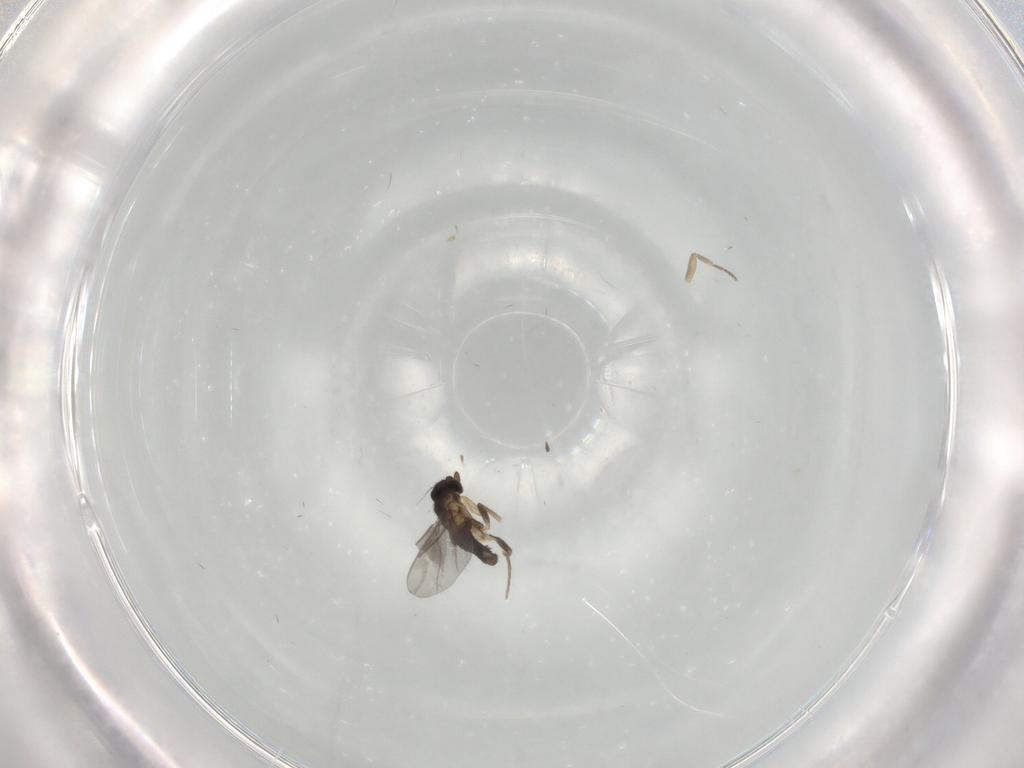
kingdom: Animalia
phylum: Arthropoda
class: Insecta
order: Diptera
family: Limoniidae
